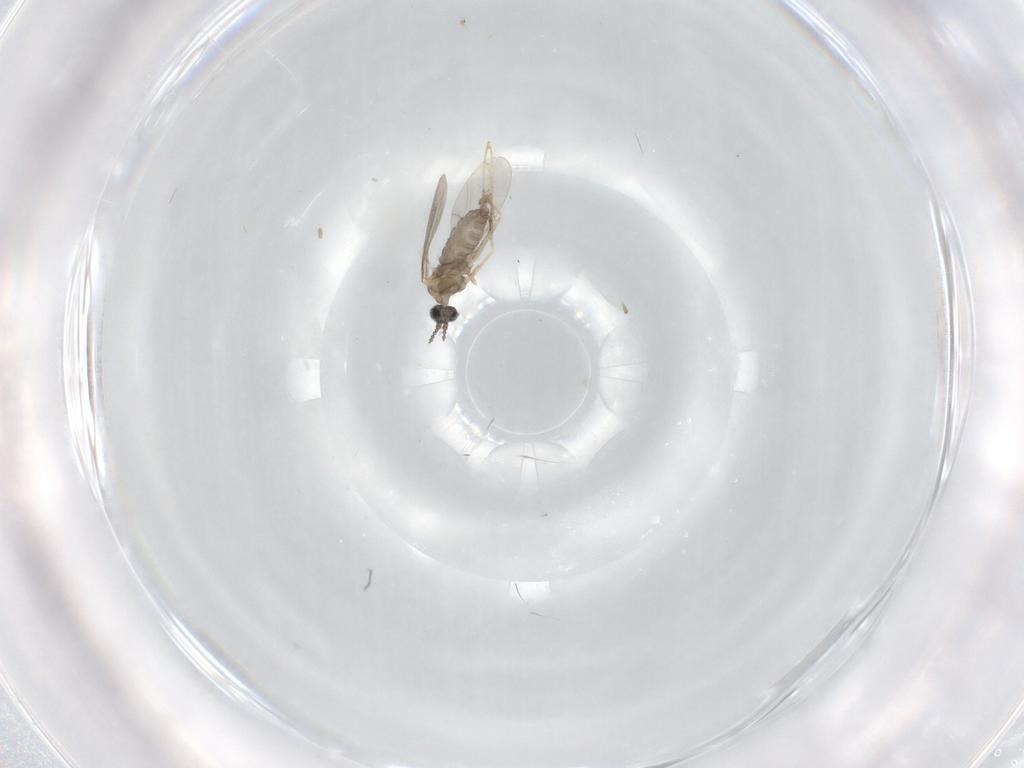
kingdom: Animalia
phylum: Arthropoda
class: Insecta
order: Diptera
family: Cecidomyiidae
